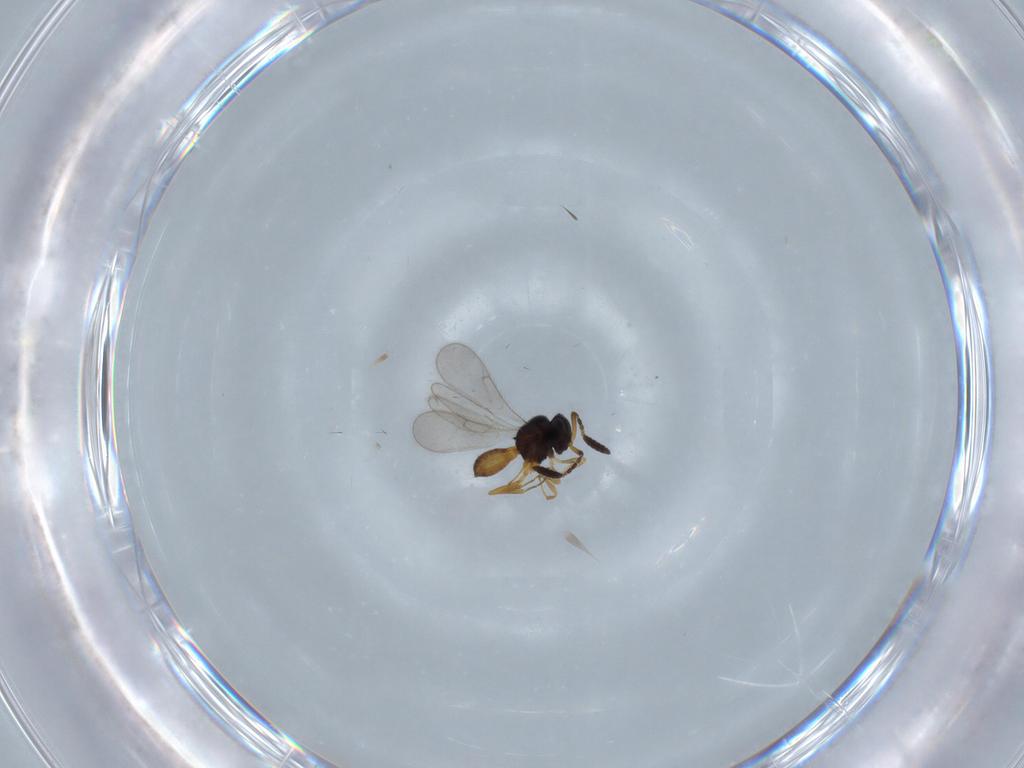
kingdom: Animalia
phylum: Arthropoda
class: Insecta
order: Hymenoptera
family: Scelionidae
